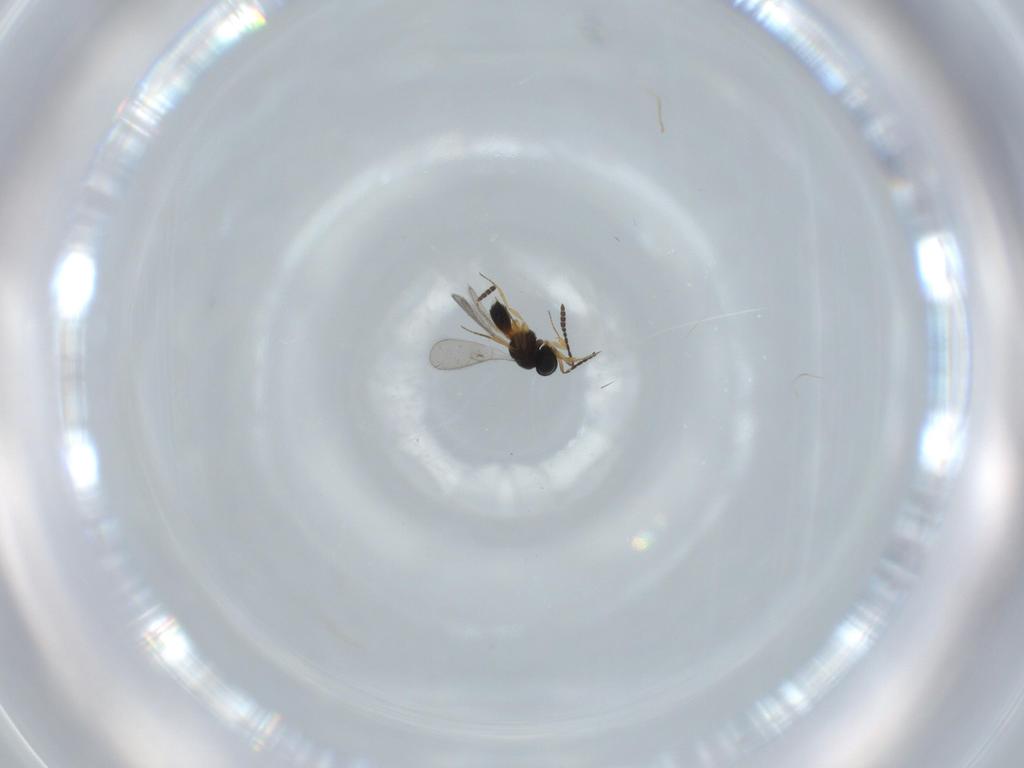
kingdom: Animalia
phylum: Arthropoda
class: Insecta
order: Hymenoptera
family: Scelionidae
